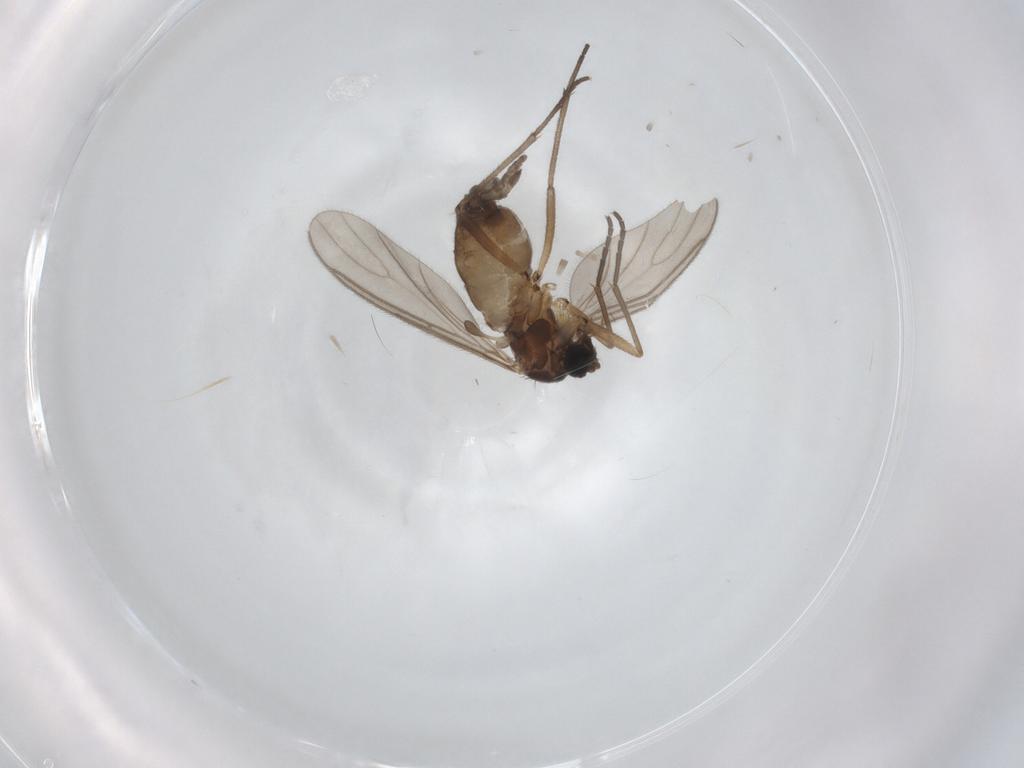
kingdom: Animalia
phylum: Arthropoda
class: Insecta
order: Diptera
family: Sciaridae
